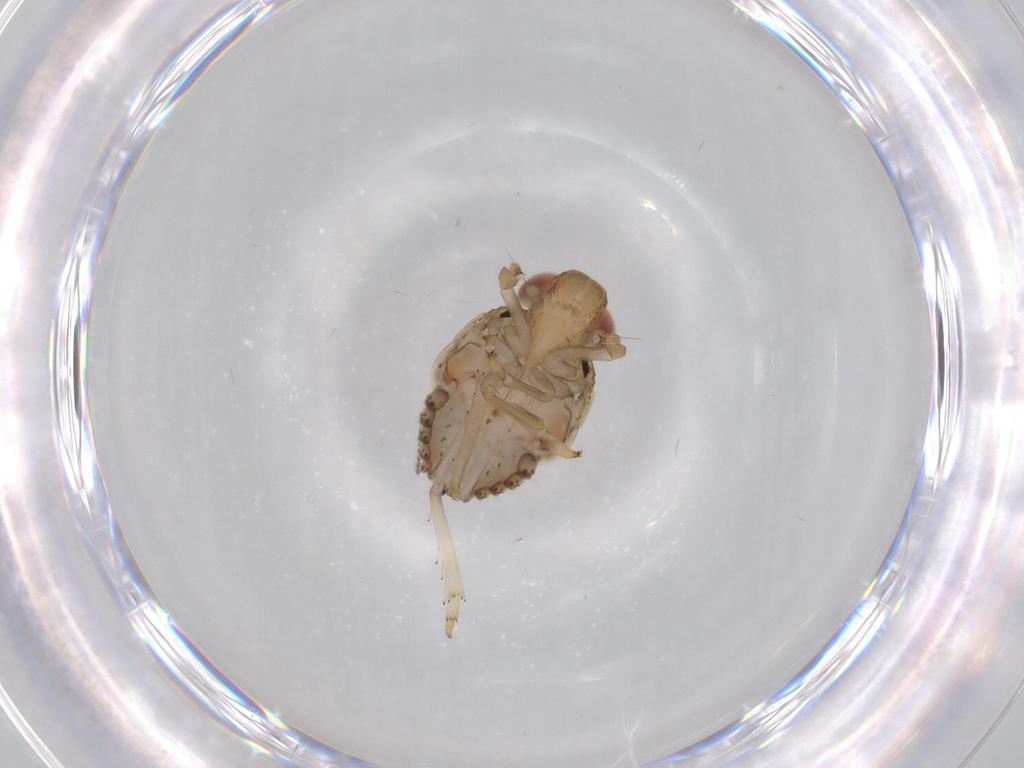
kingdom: Animalia
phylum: Arthropoda
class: Insecta
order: Hemiptera
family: Issidae
